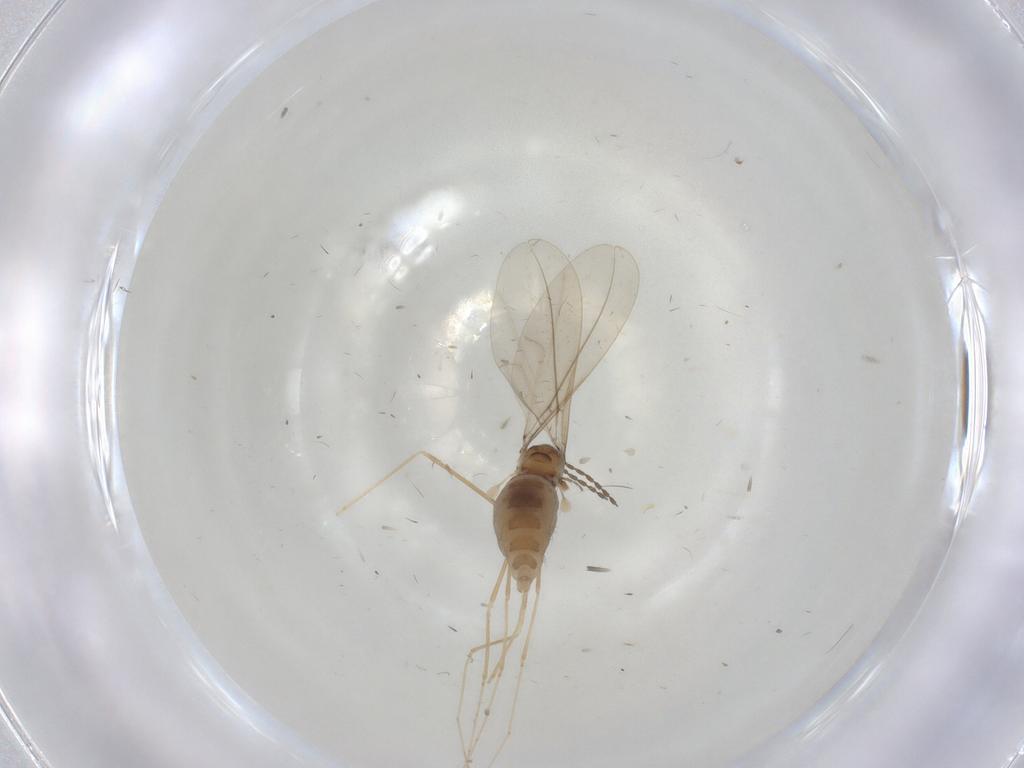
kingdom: Animalia
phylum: Arthropoda
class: Insecta
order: Diptera
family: Cecidomyiidae
